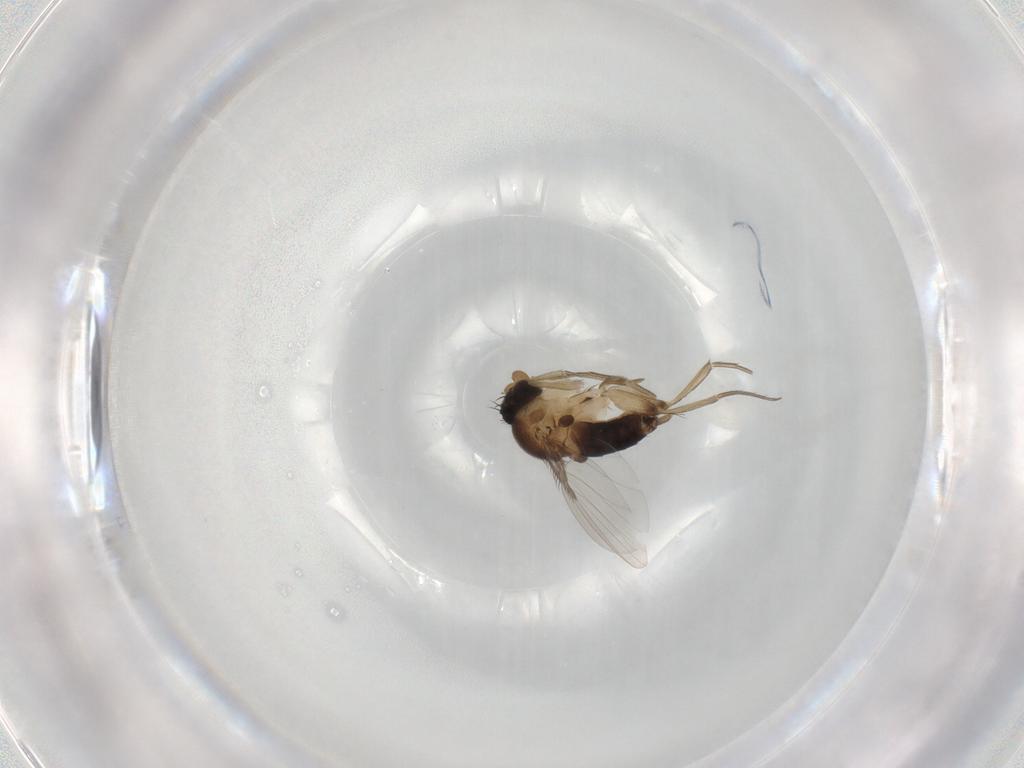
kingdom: Animalia
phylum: Arthropoda
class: Insecta
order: Diptera
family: Phoridae
